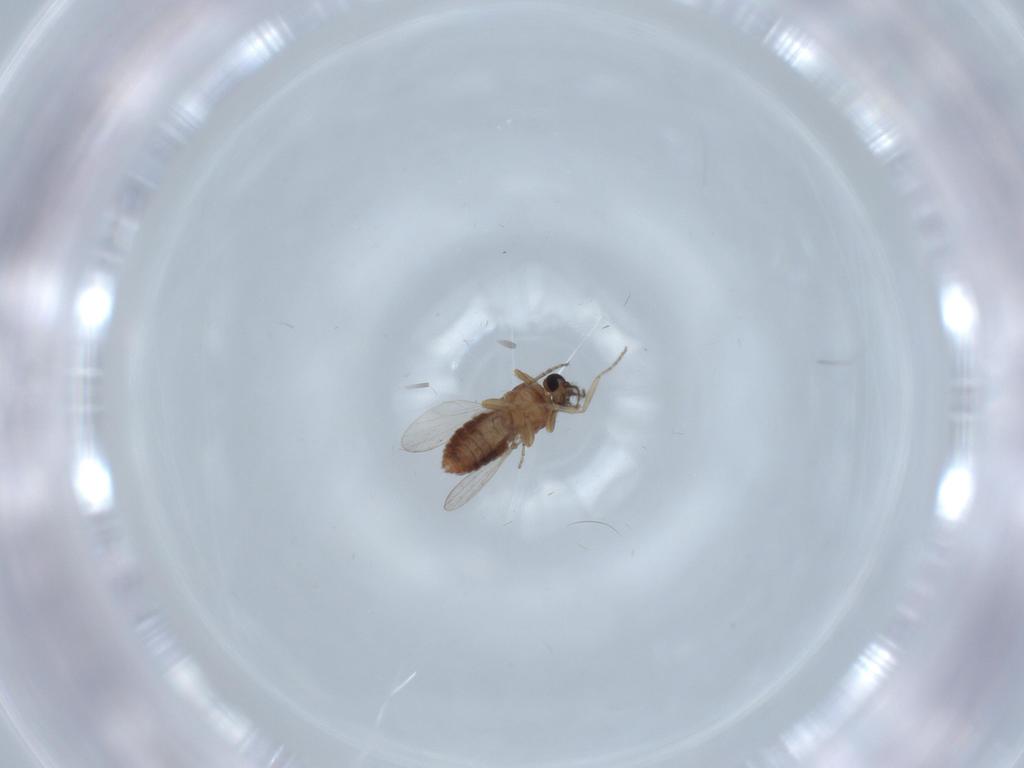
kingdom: Animalia
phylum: Arthropoda
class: Insecta
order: Diptera
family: Ceratopogonidae
